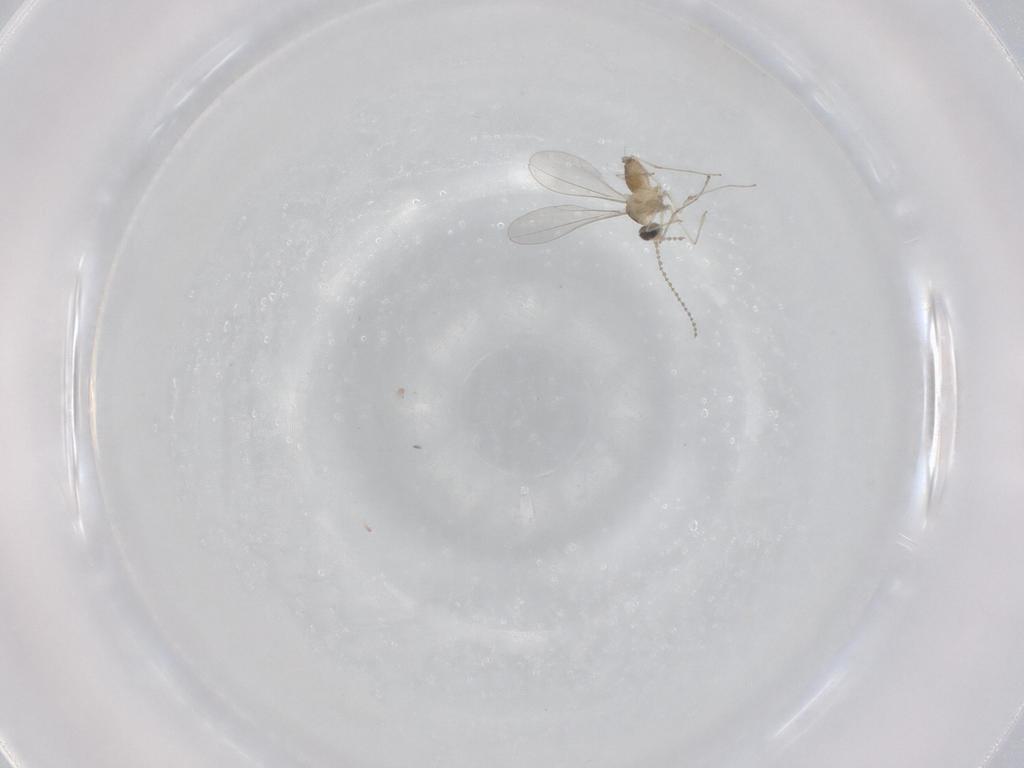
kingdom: Animalia
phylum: Arthropoda
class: Insecta
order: Diptera
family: Cecidomyiidae
